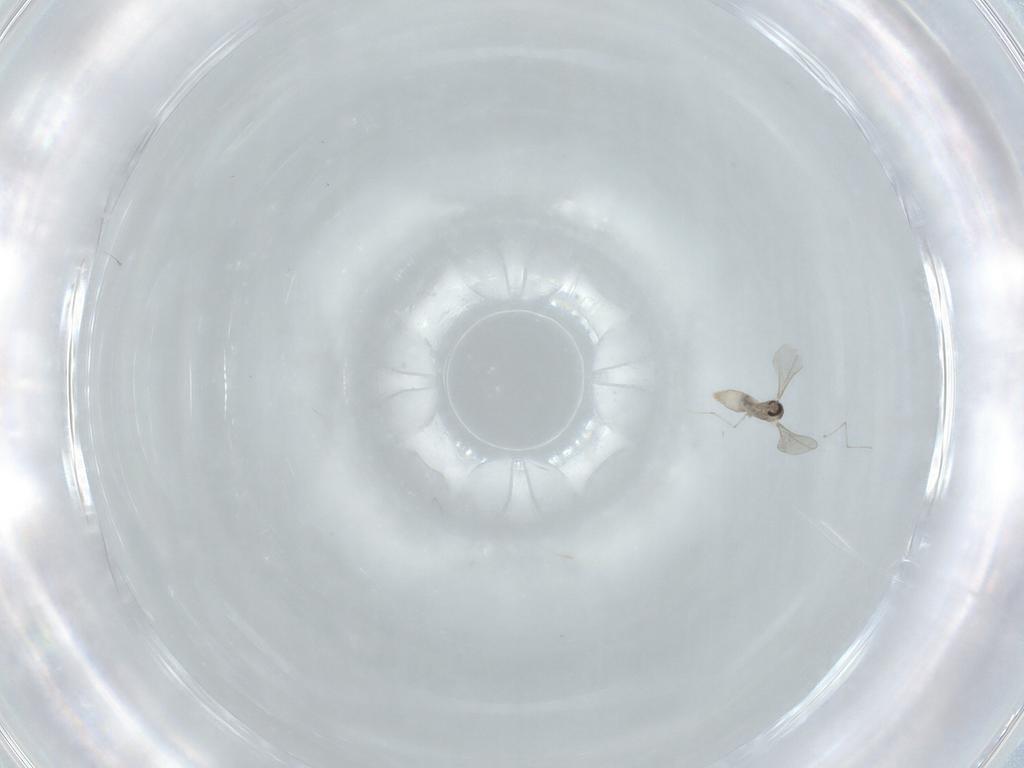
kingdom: Animalia
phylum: Arthropoda
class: Insecta
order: Diptera
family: Cecidomyiidae
